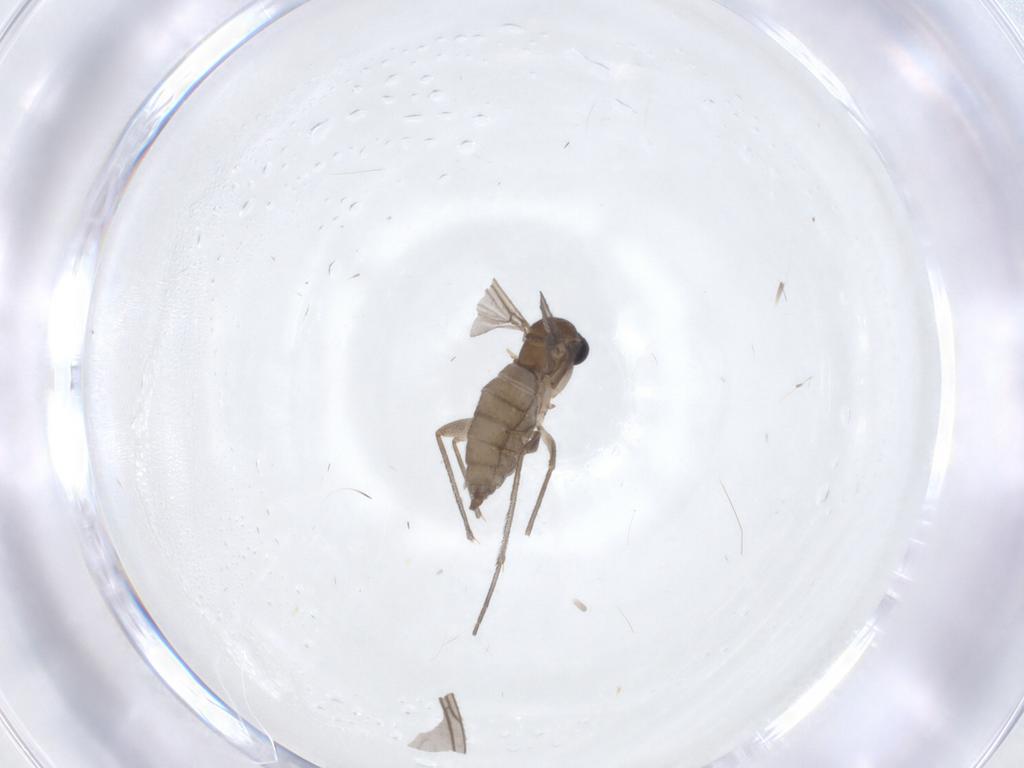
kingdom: Animalia
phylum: Arthropoda
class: Insecta
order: Diptera
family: Sciaridae
